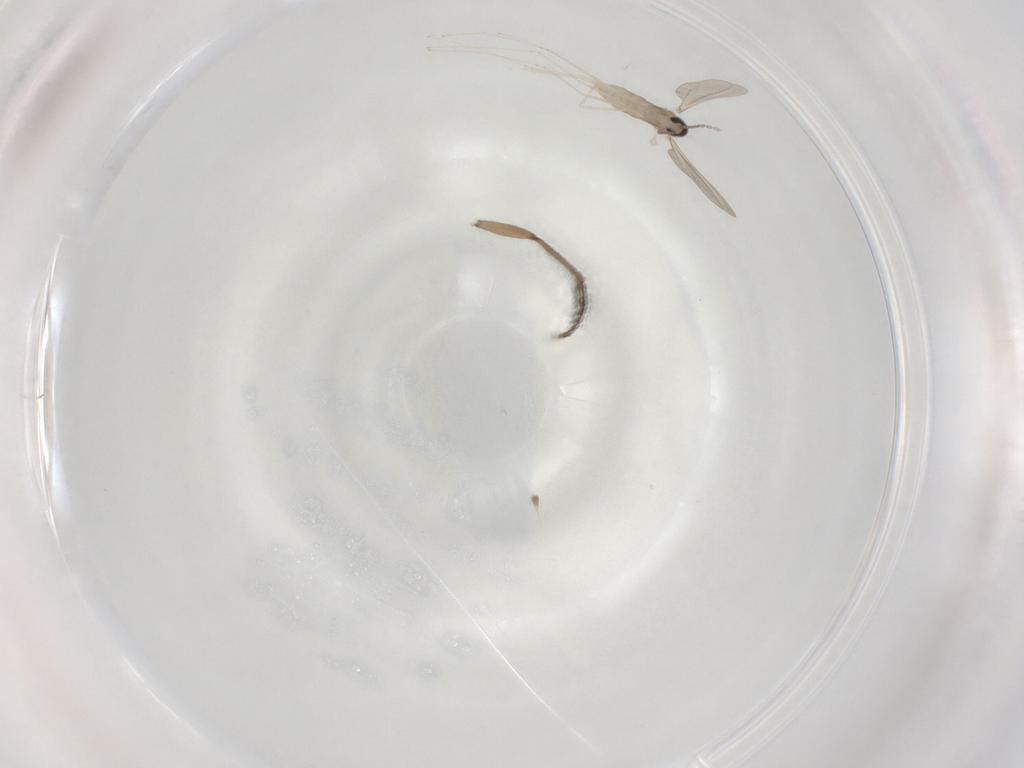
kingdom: Animalia
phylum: Arthropoda
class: Insecta
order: Diptera
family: Cecidomyiidae
